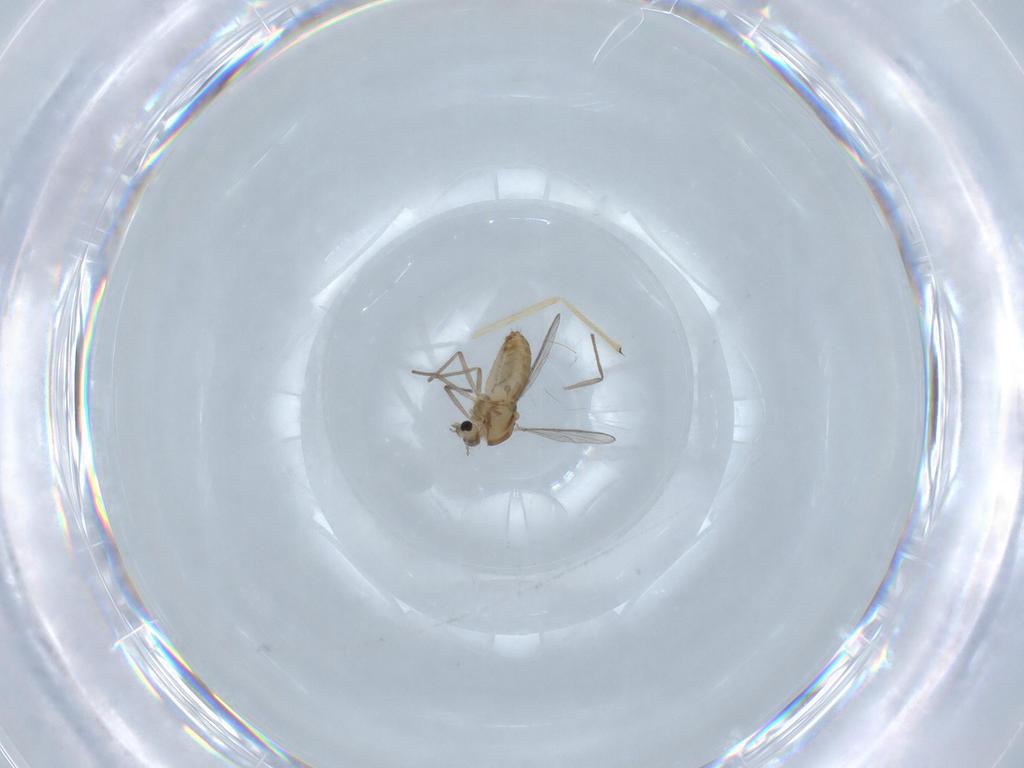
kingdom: Animalia
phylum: Arthropoda
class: Insecta
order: Diptera
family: Chironomidae
